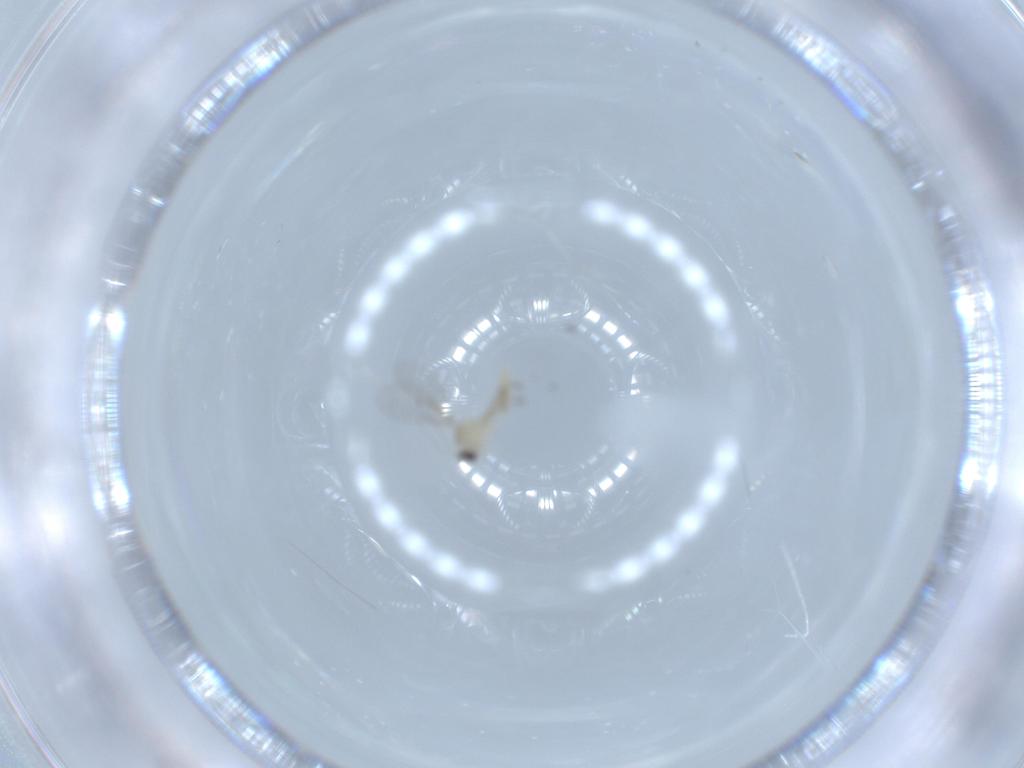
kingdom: Animalia
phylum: Arthropoda
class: Insecta
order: Diptera
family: Cecidomyiidae
